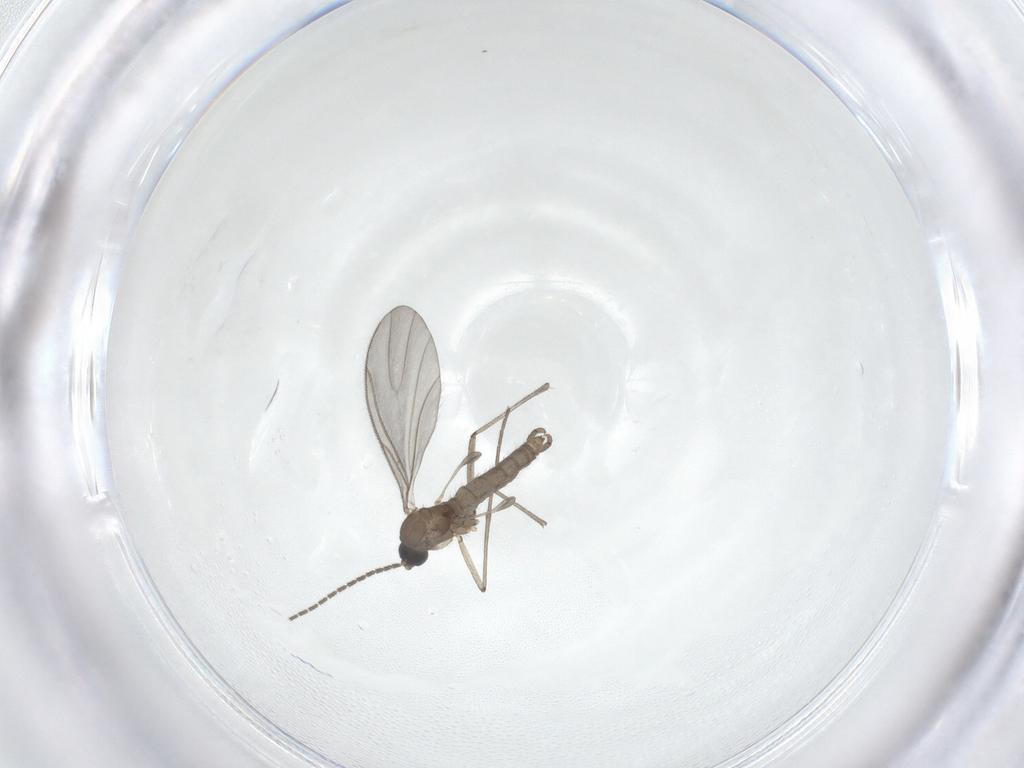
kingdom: Animalia
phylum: Arthropoda
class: Insecta
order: Diptera
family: Sciaridae
